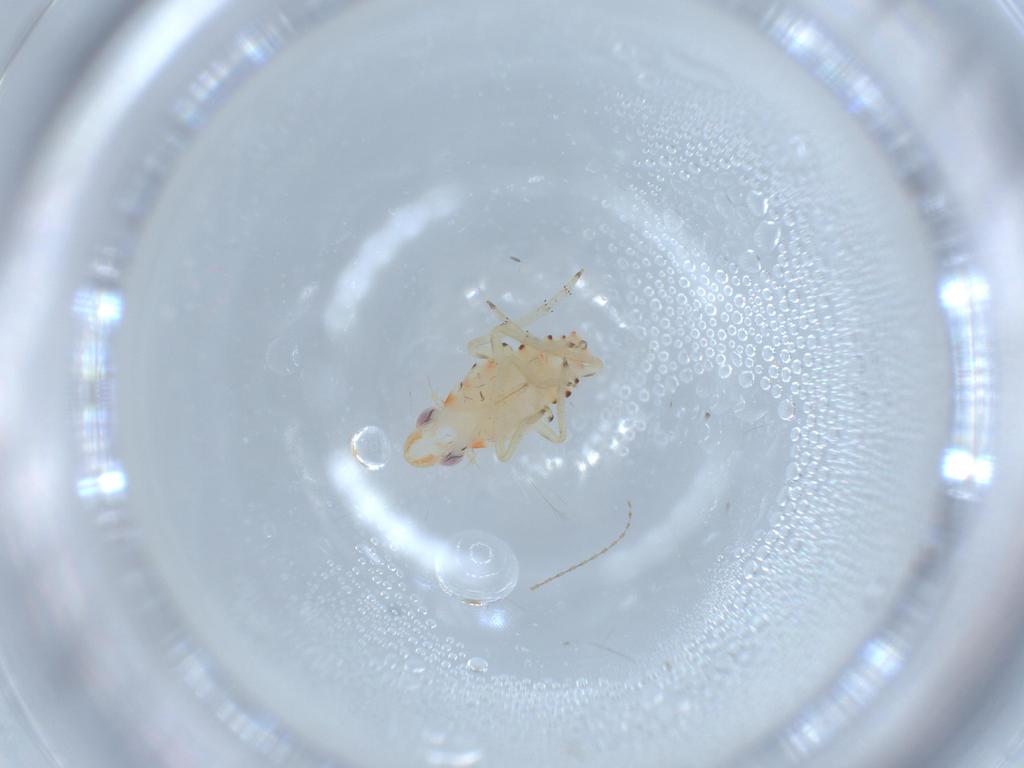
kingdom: Animalia
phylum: Arthropoda
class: Insecta
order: Hemiptera
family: Tropiduchidae
